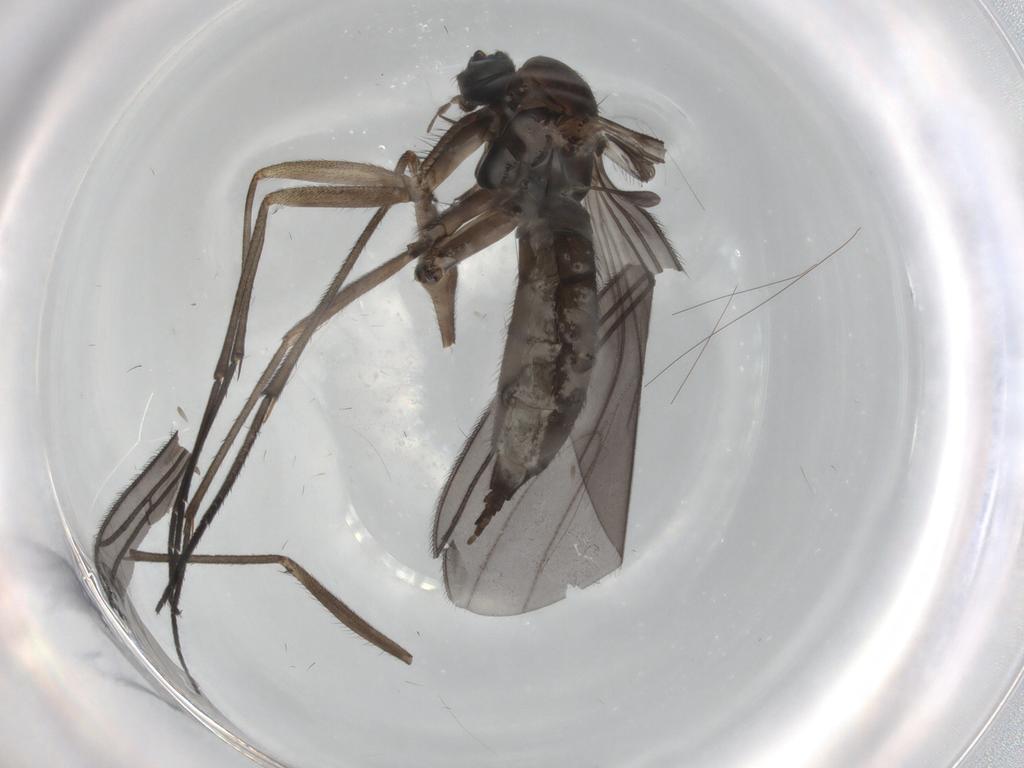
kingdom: Animalia
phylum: Arthropoda
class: Insecta
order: Diptera
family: Sciaridae
